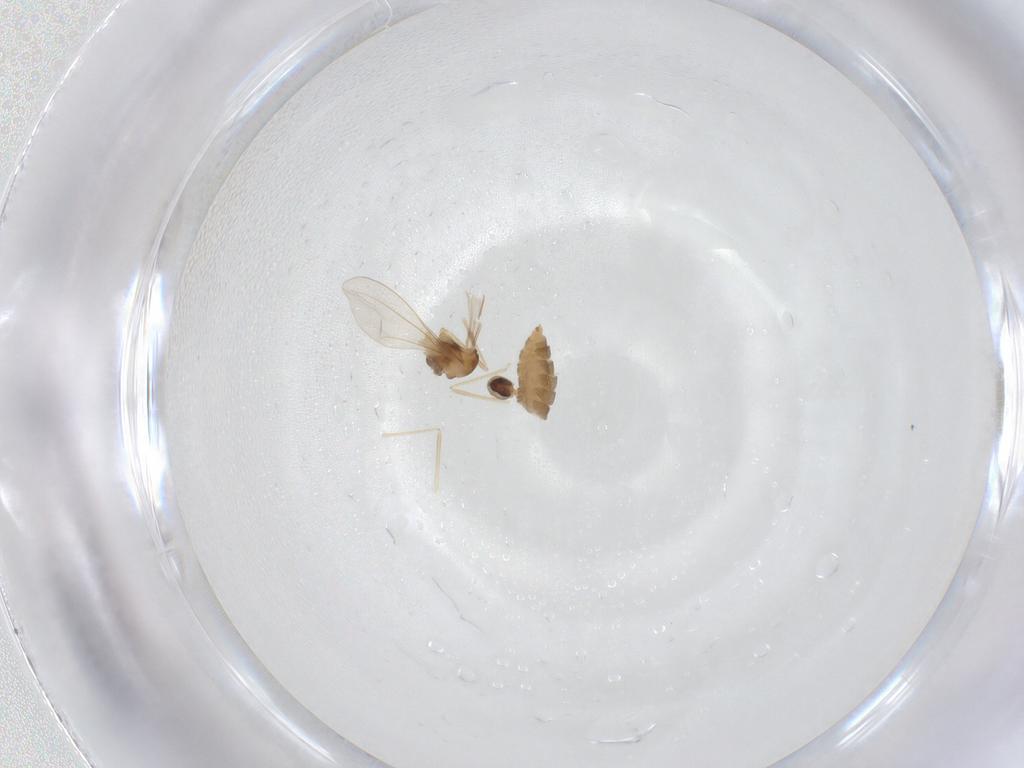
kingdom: Animalia
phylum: Arthropoda
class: Insecta
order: Diptera
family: Cecidomyiidae
